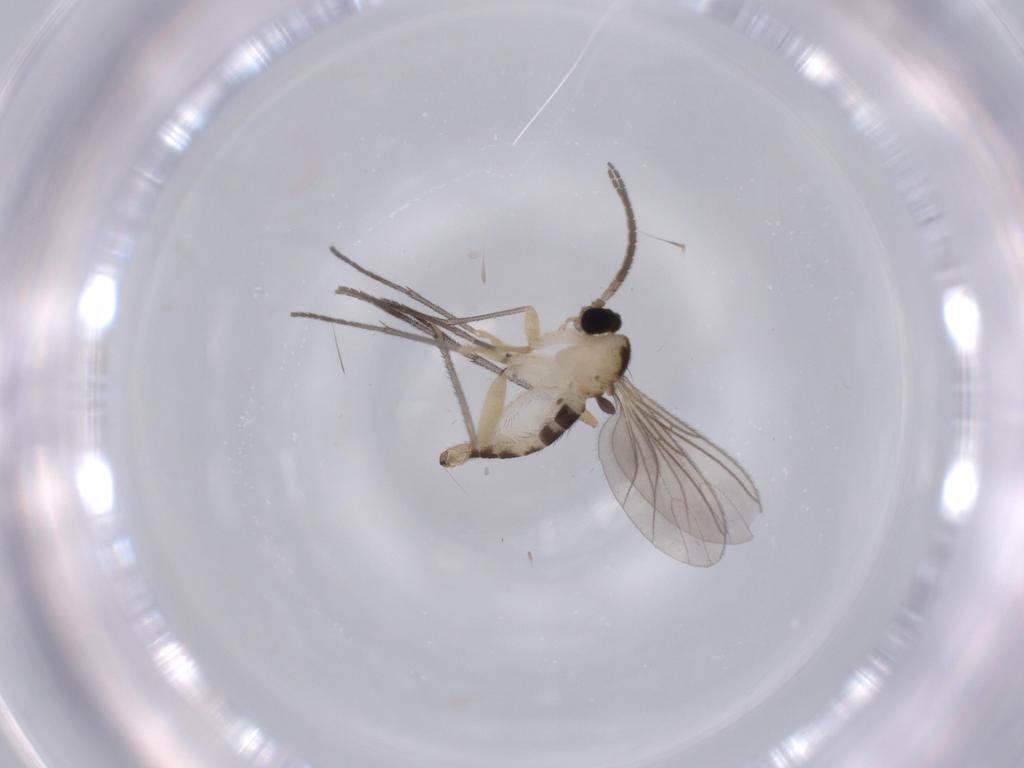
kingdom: Animalia
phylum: Arthropoda
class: Insecta
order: Diptera
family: Sciaridae
